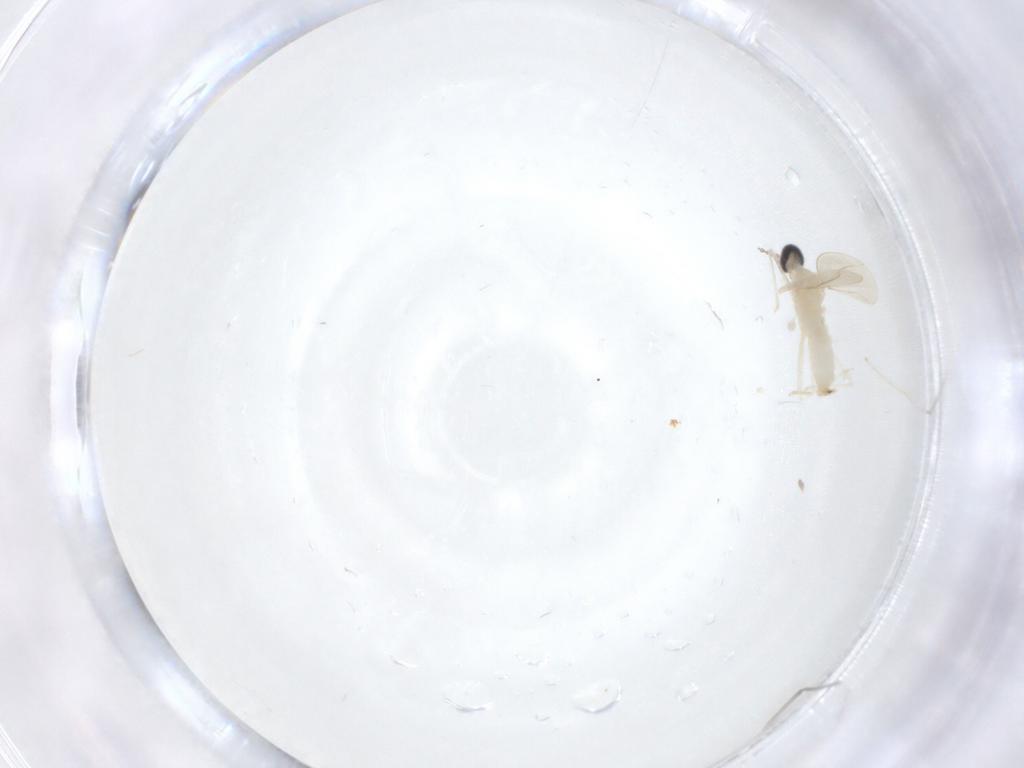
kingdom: Animalia
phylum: Arthropoda
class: Insecta
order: Diptera
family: Cecidomyiidae
